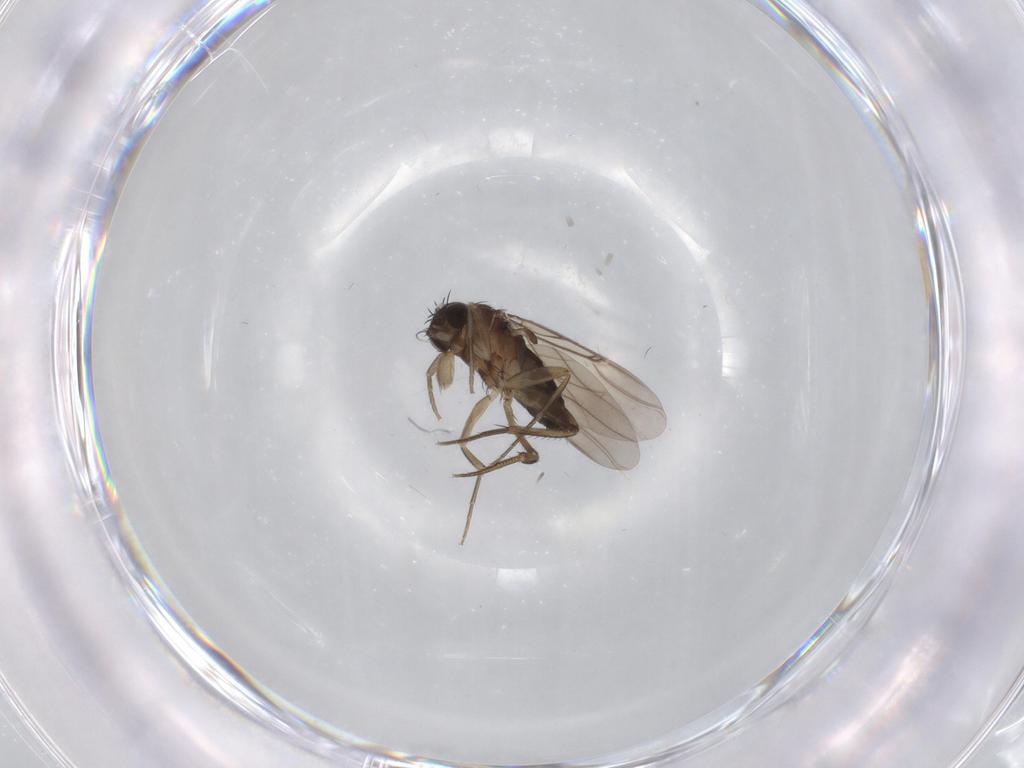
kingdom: Animalia
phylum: Arthropoda
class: Insecta
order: Diptera
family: Phoridae
